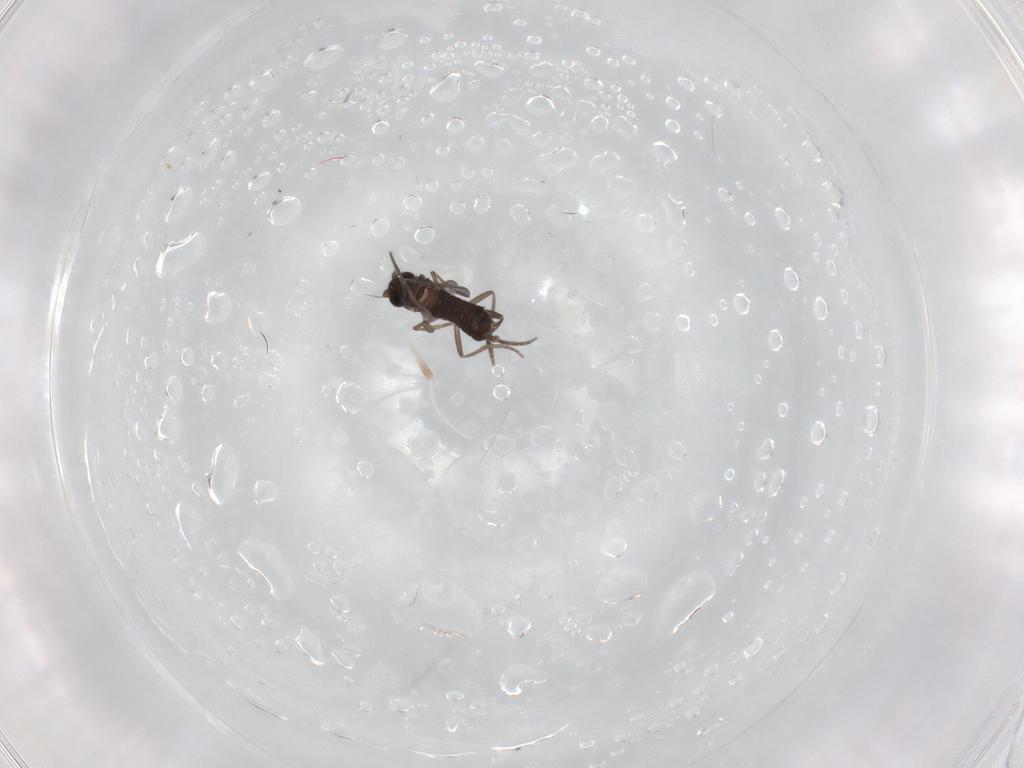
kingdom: Animalia
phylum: Arthropoda
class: Insecta
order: Diptera
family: Phoridae
